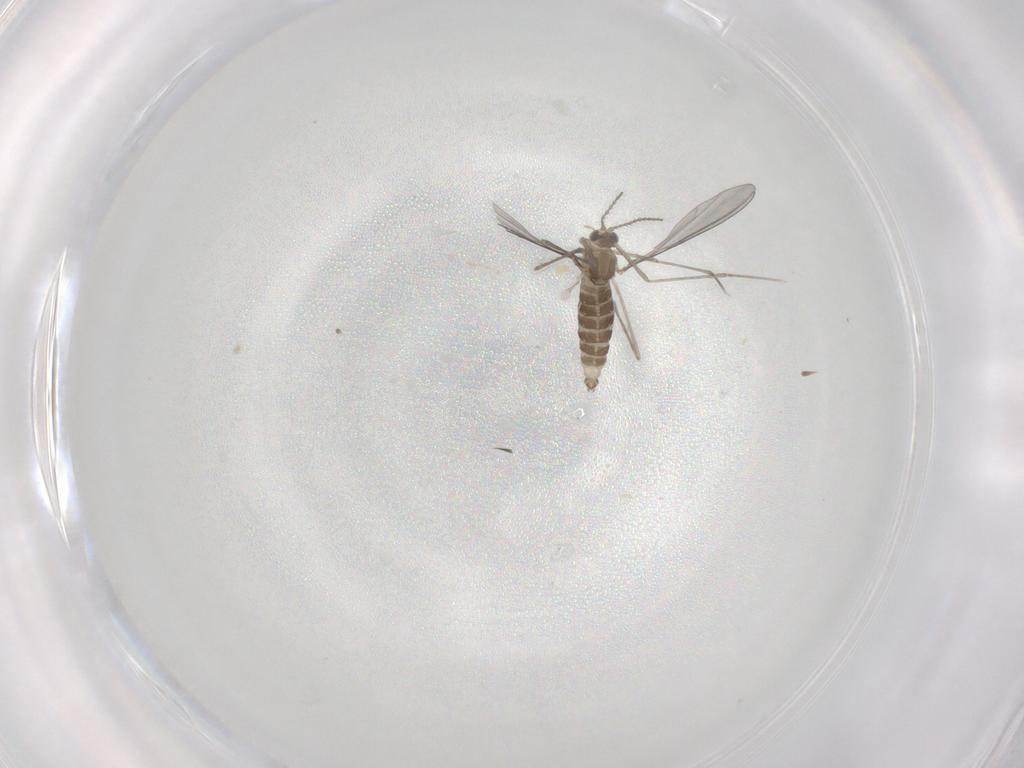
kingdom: Animalia
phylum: Arthropoda
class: Insecta
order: Diptera
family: Cecidomyiidae
